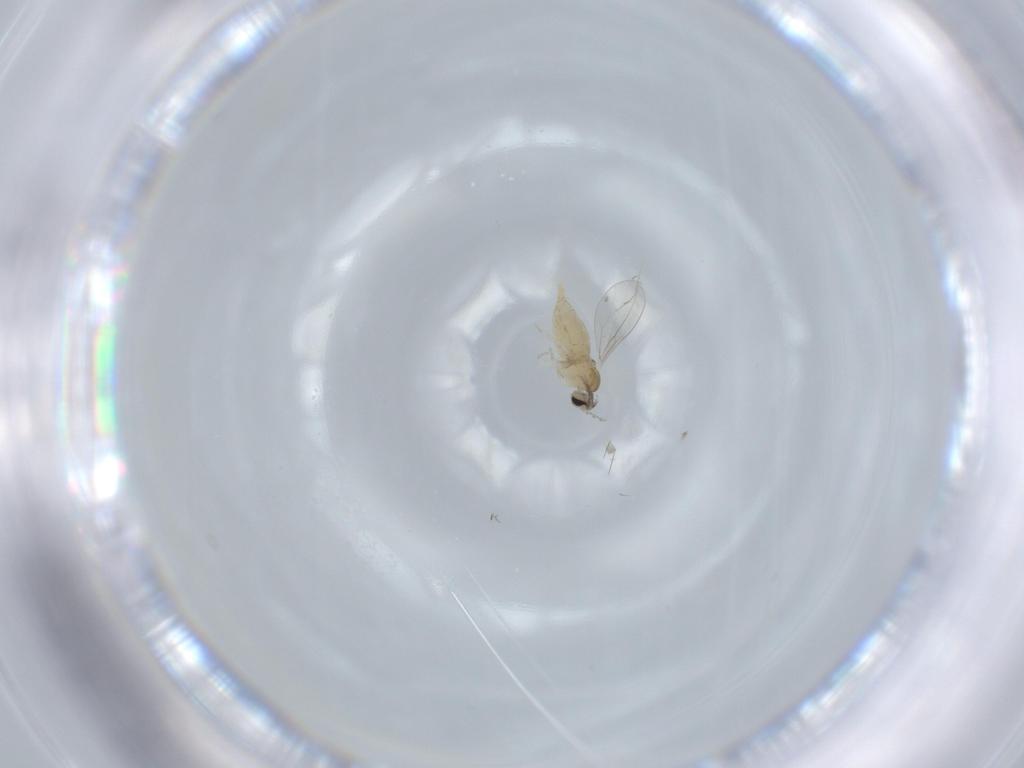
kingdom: Animalia
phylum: Arthropoda
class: Insecta
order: Diptera
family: Cecidomyiidae
